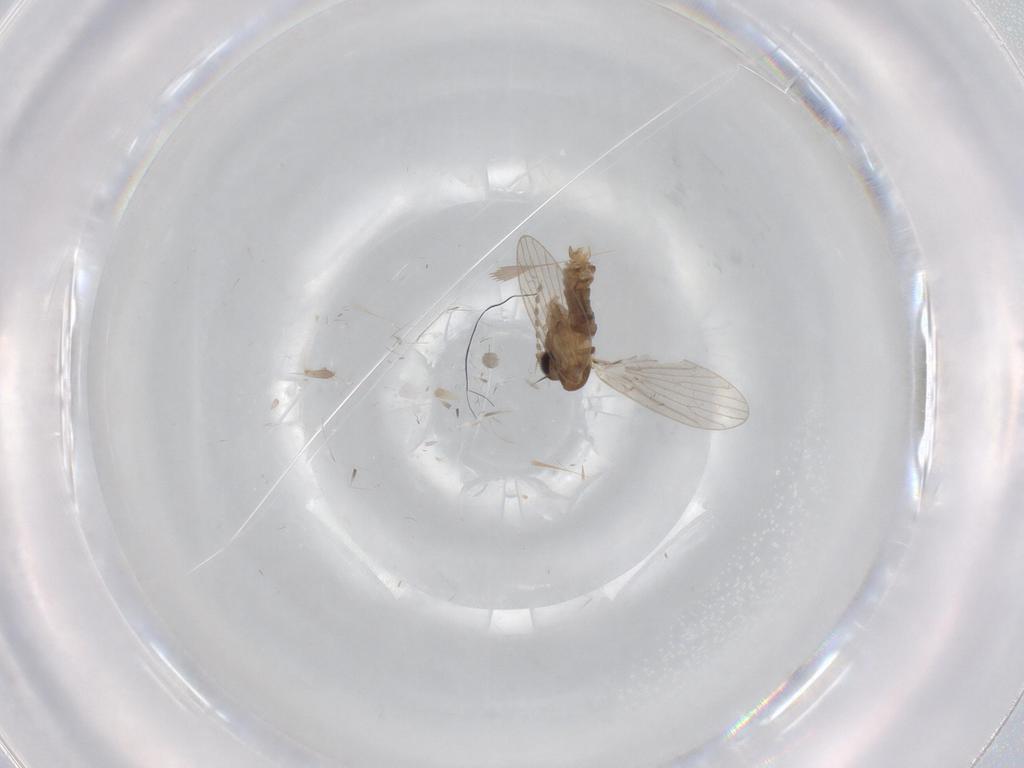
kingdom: Animalia
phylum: Arthropoda
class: Insecta
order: Diptera
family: Psychodidae
